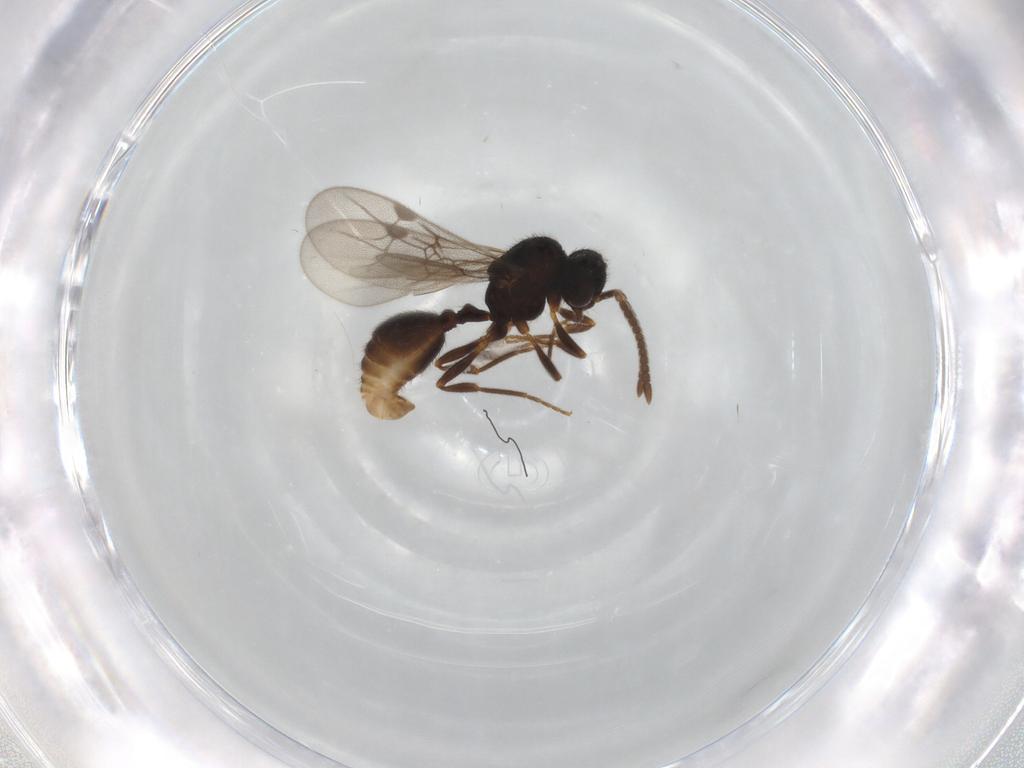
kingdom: Animalia
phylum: Arthropoda
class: Insecta
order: Hymenoptera
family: Formicidae
